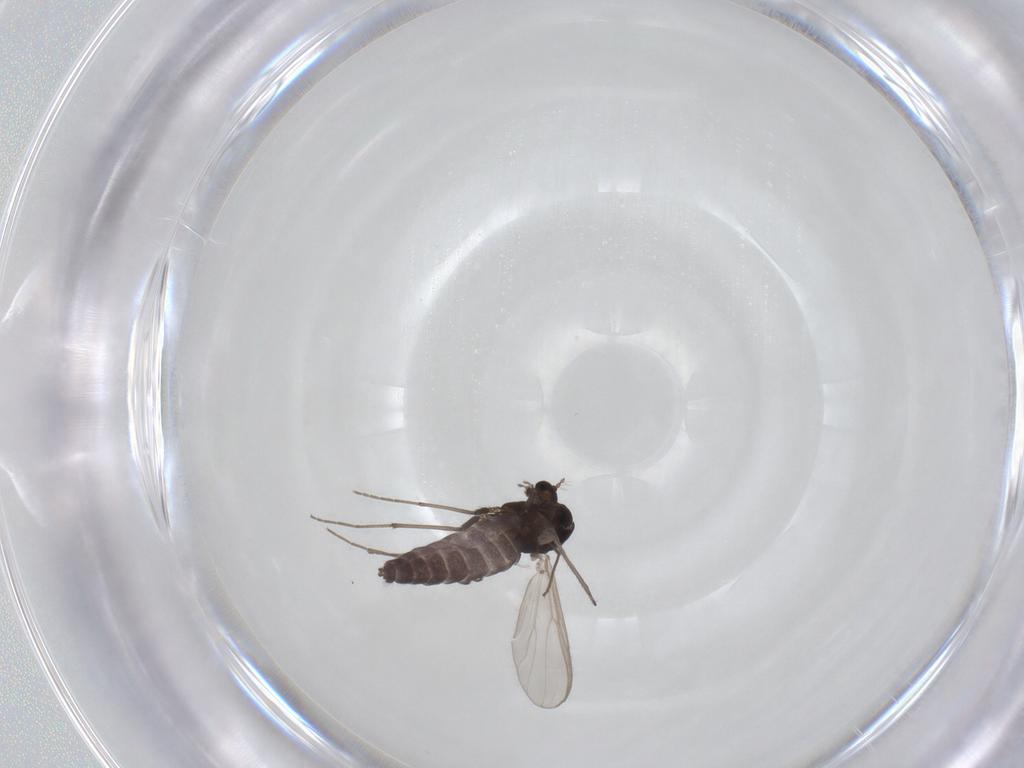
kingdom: Animalia
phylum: Arthropoda
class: Insecta
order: Diptera
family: Chironomidae
